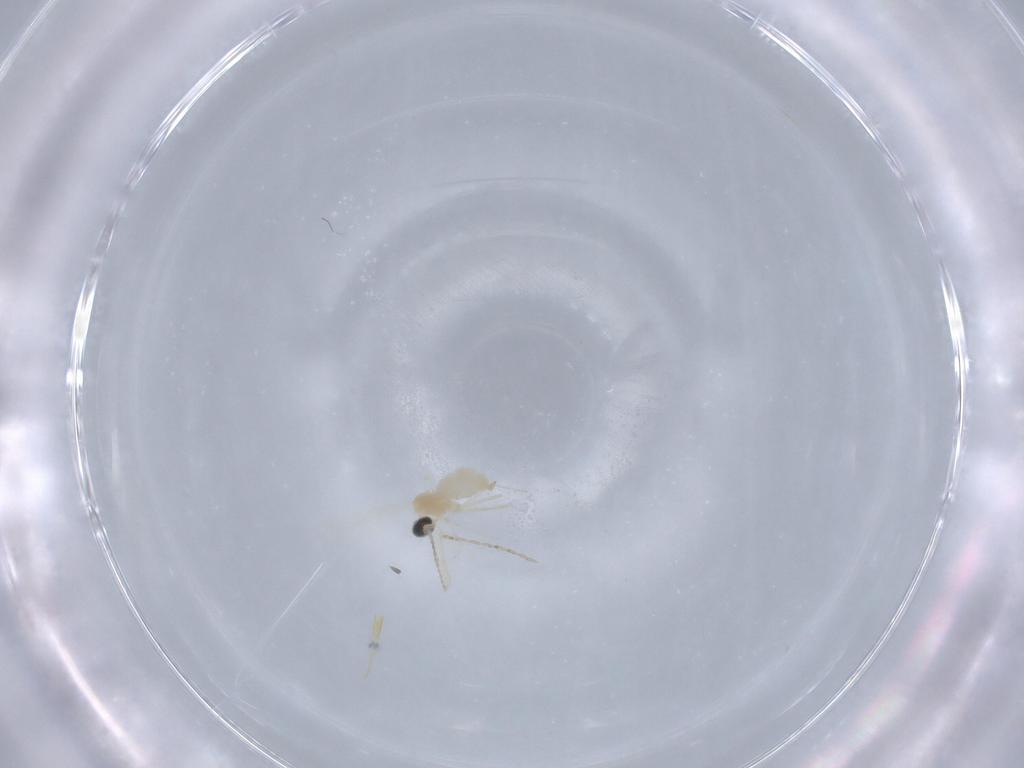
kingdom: Animalia
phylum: Arthropoda
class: Insecta
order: Diptera
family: Cecidomyiidae
